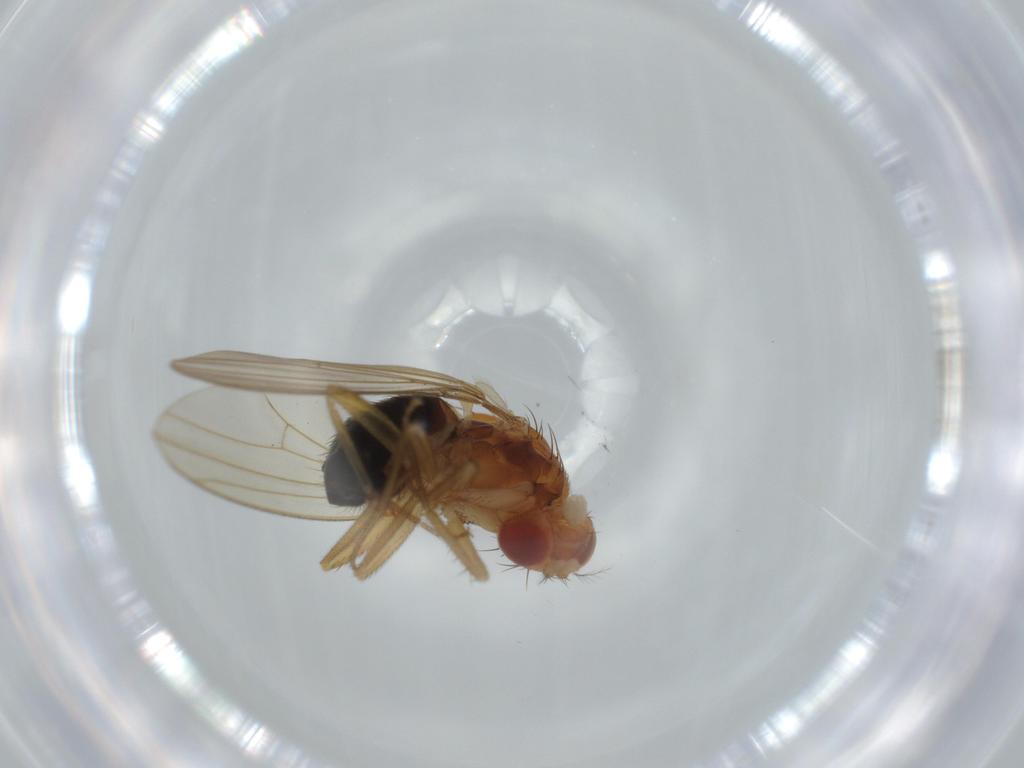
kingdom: Animalia
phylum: Arthropoda
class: Insecta
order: Diptera
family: Drosophilidae
